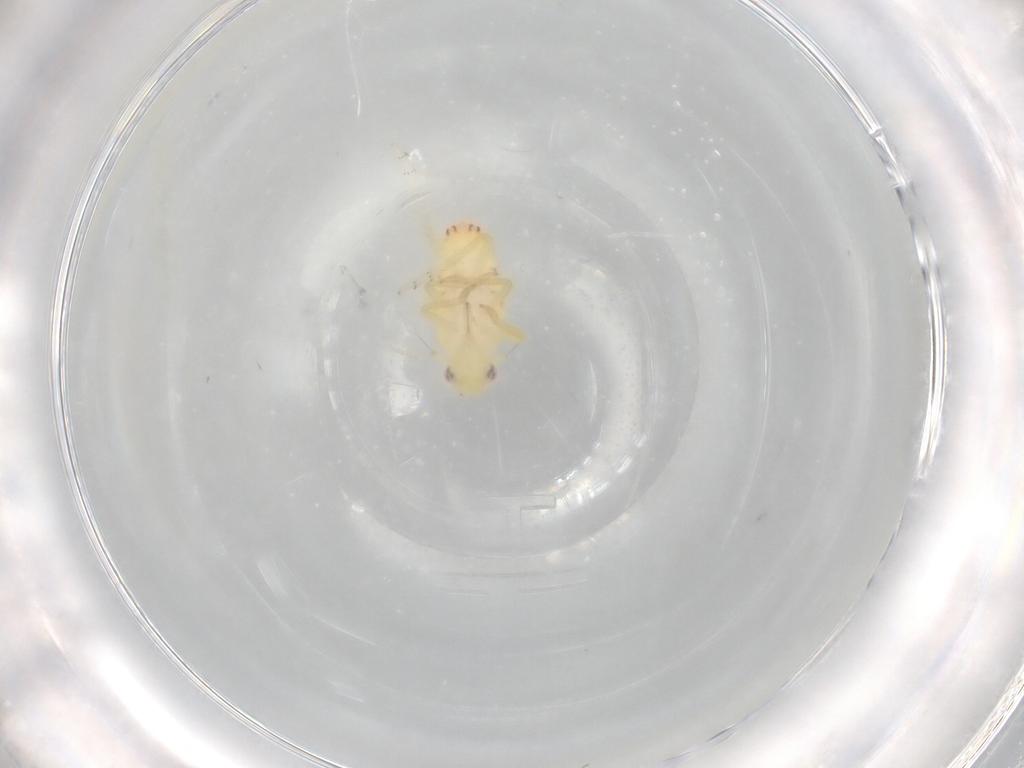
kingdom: Animalia
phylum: Arthropoda
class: Insecta
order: Hemiptera
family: Tropiduchidae
